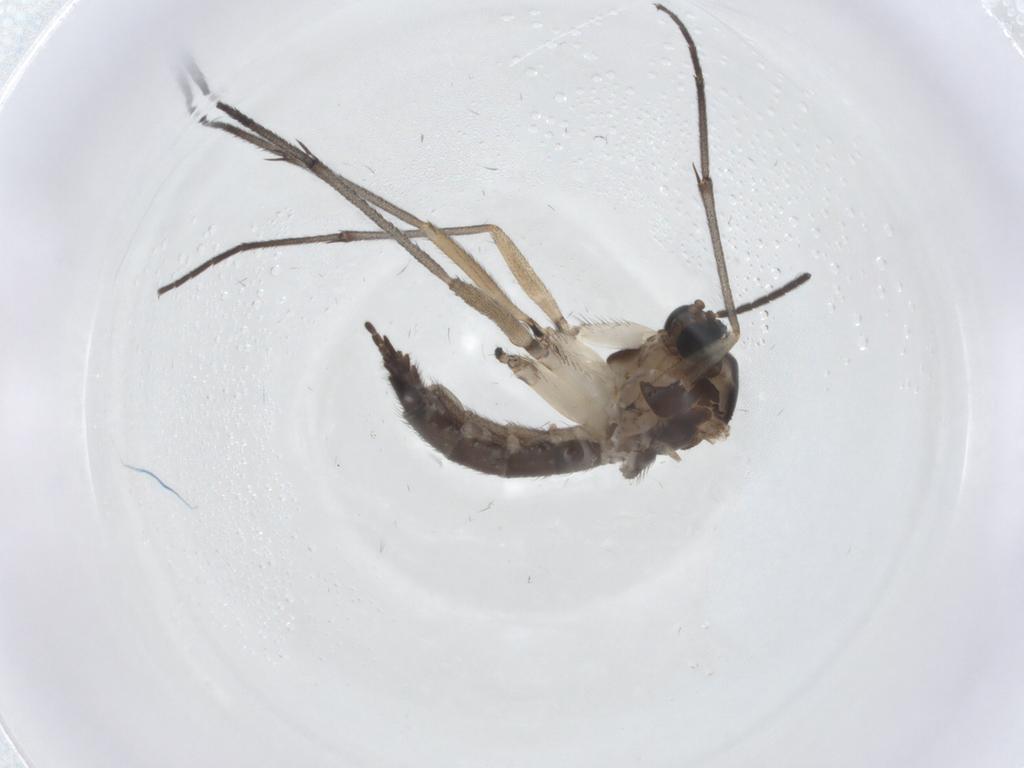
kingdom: Animalia
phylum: Arthropoda
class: Insecta
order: Diptera
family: Sciaridae
